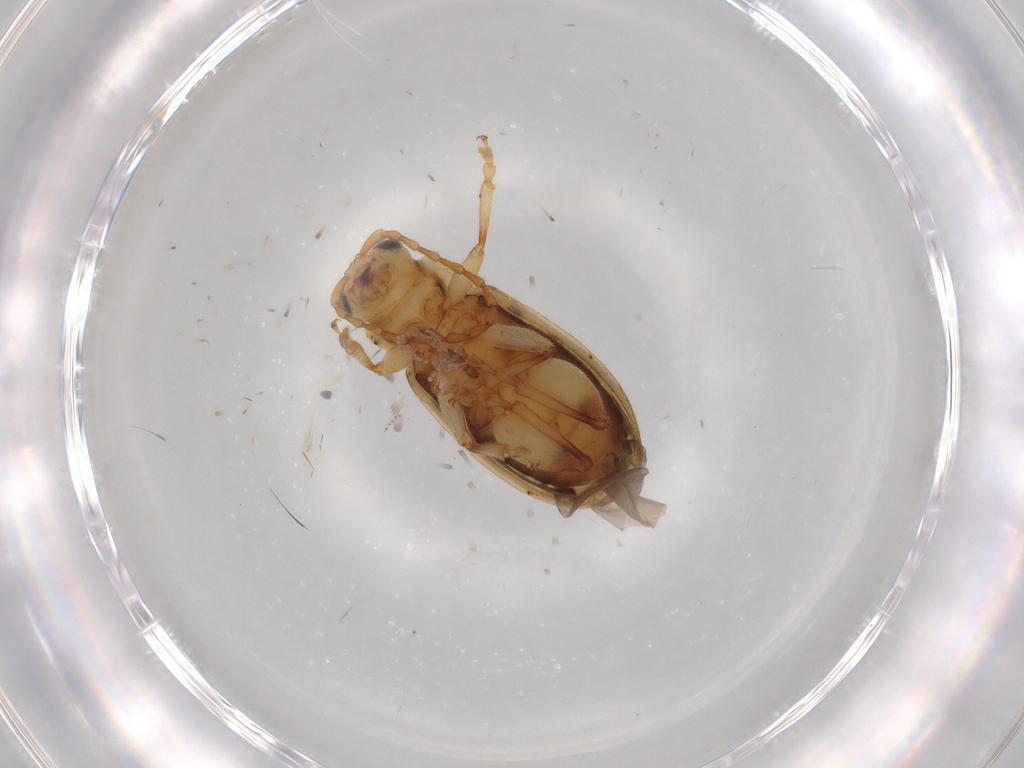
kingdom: Animalia
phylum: Arthropoda
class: Insecta
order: Coleoptera
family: Chrysomelidae
